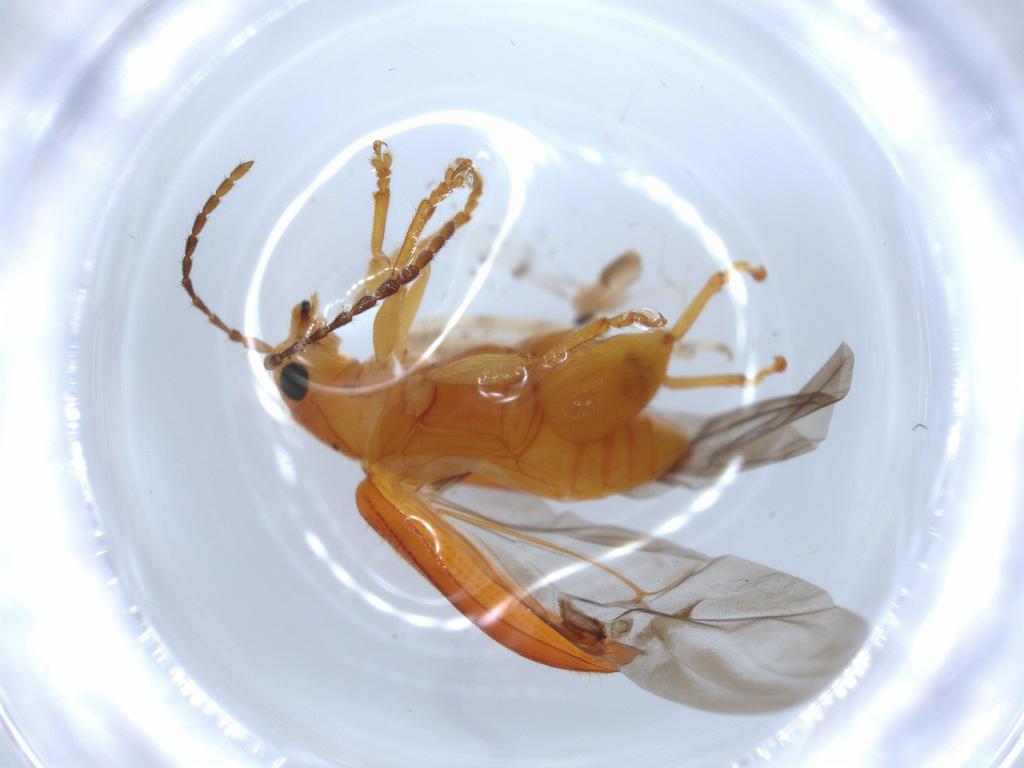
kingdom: Animalia
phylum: Arthropoda
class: Insecta
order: Coleoptera
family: Chrysomelidae
